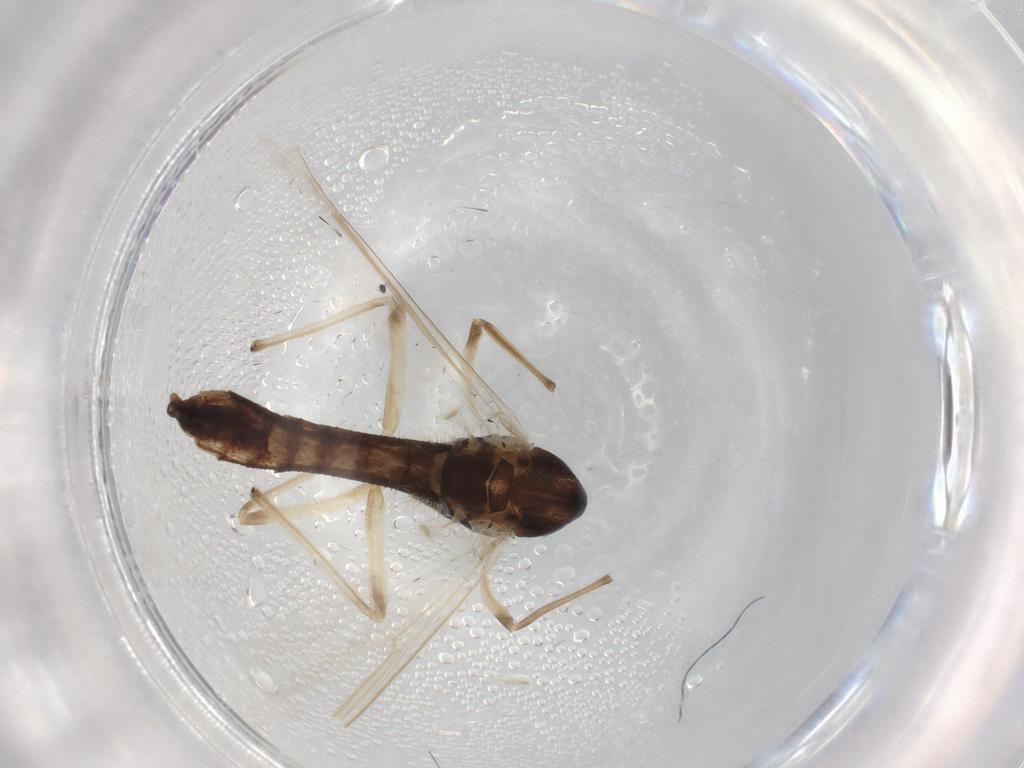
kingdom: Animalia
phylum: Arthropoda
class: Insecta
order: Diptera
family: Chironomidae
